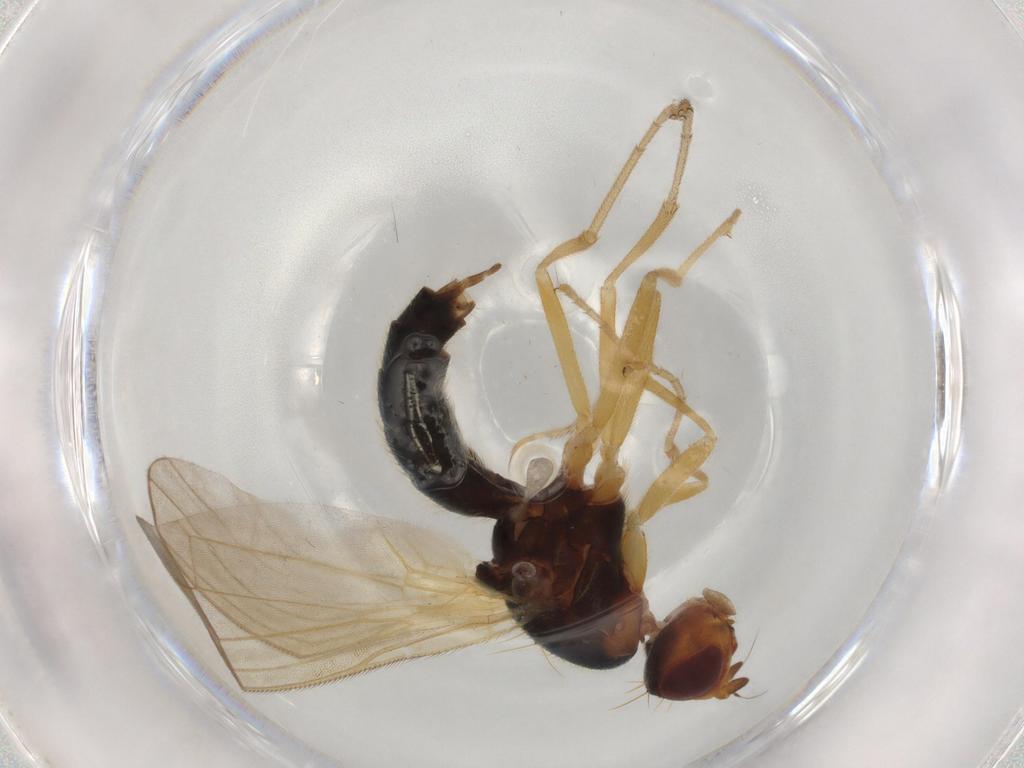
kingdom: Animalia
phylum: Arthropoda
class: Insecta
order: Diptera
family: Psilidae
